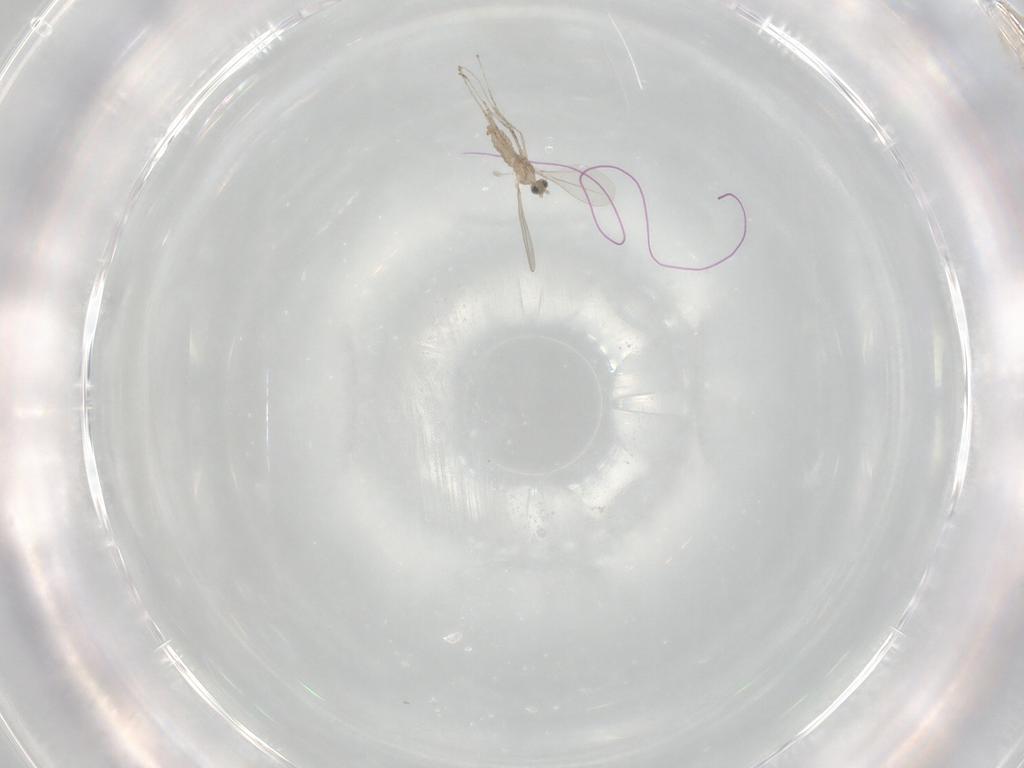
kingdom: Animalia
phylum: Arthropoda
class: Insecta
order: Diptera
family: Cecidomyiidae
